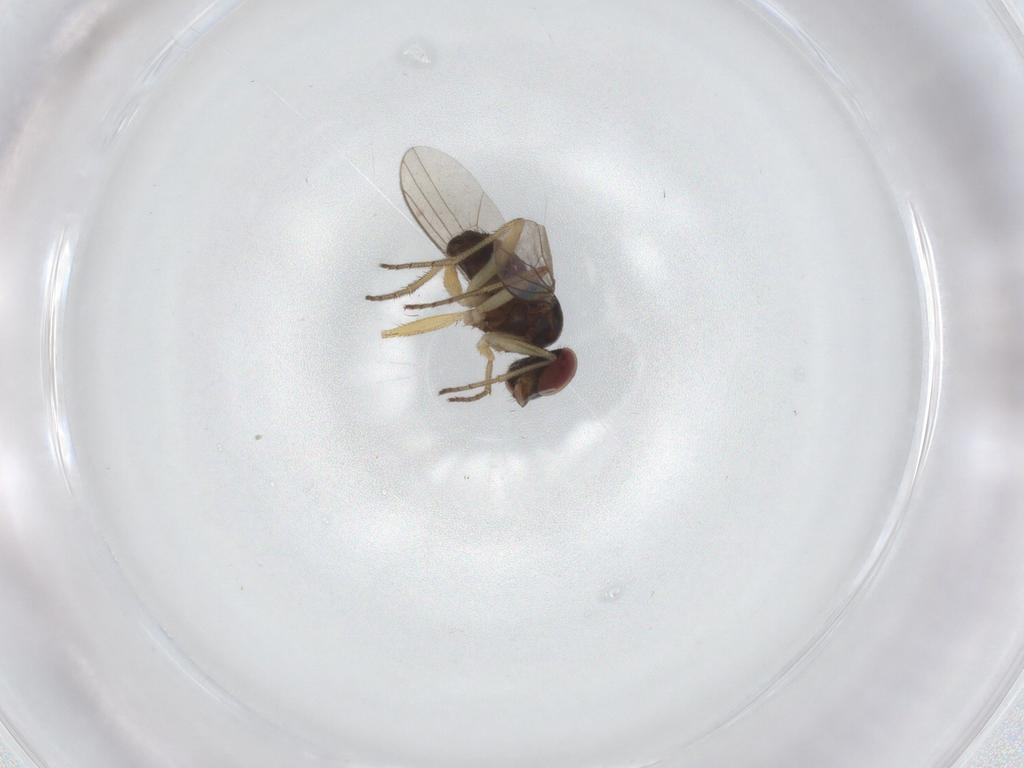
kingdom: Animalia
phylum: Arthropoda
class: Insecta
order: Diptera
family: Dolichopodidae
